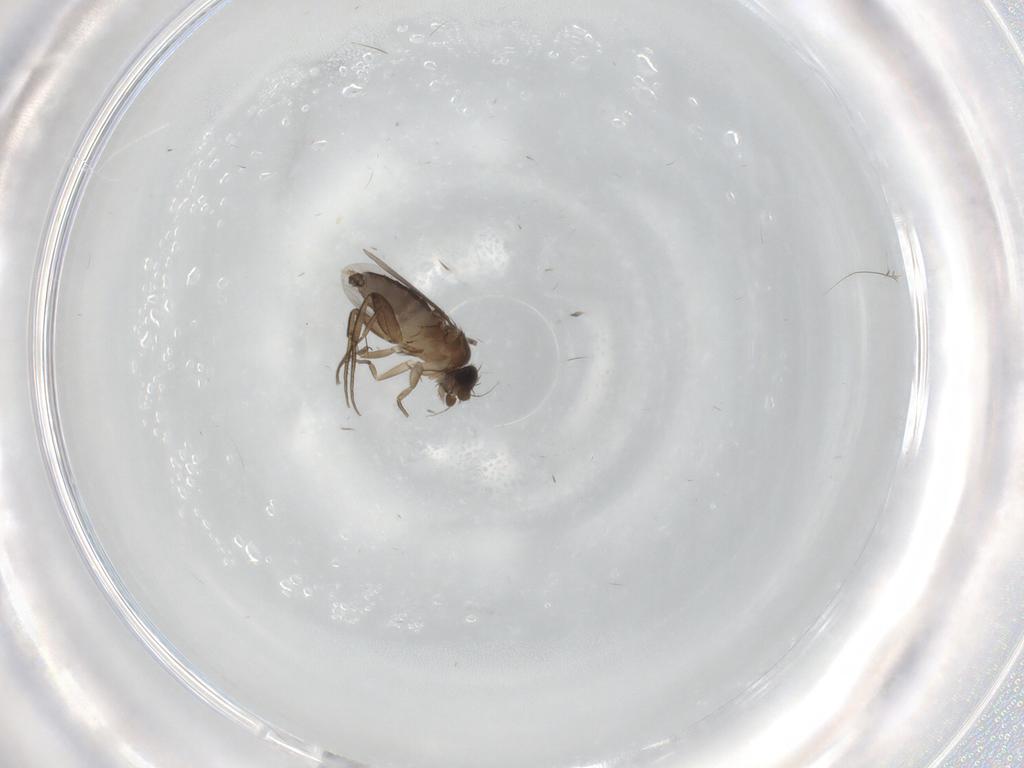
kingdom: Animalia
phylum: Arthropoda
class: Insecta
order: Diptera
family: Phoridae
